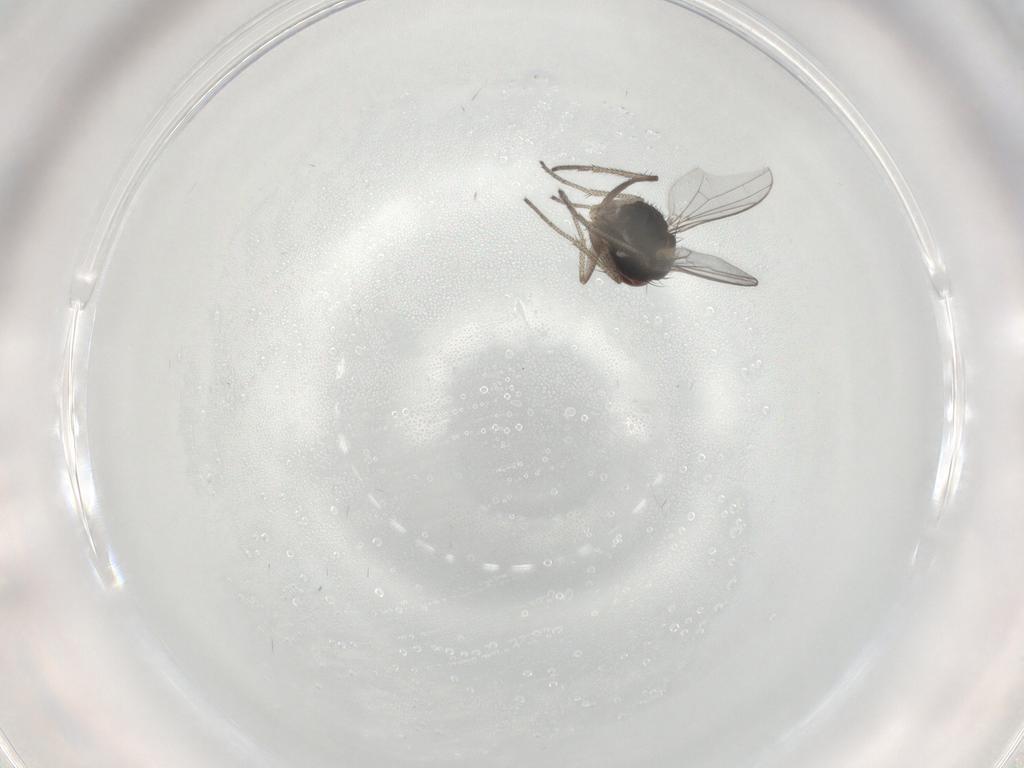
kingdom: Animalia
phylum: Arthropoda
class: Insecta
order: Diptera
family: Dolichopodidae
